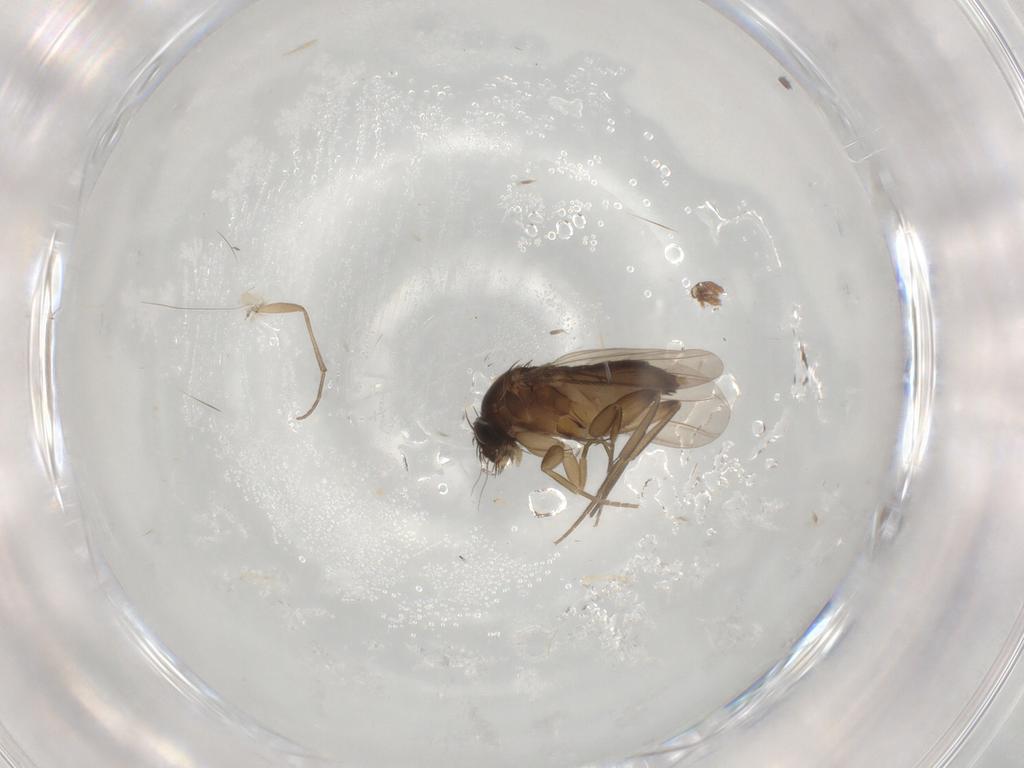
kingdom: Animalia
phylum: Arthropoda
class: Insecta
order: Diptera
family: Phoridae
